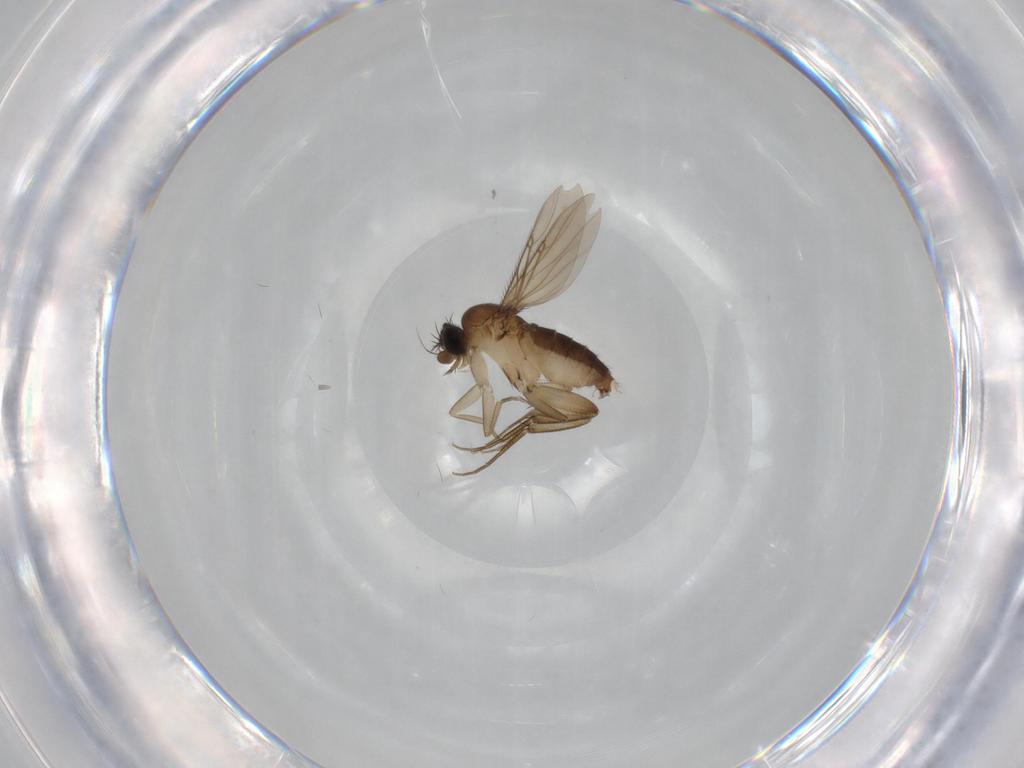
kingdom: Animalia
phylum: Arthropoda
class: Insecta
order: Diptera
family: Phoridae
